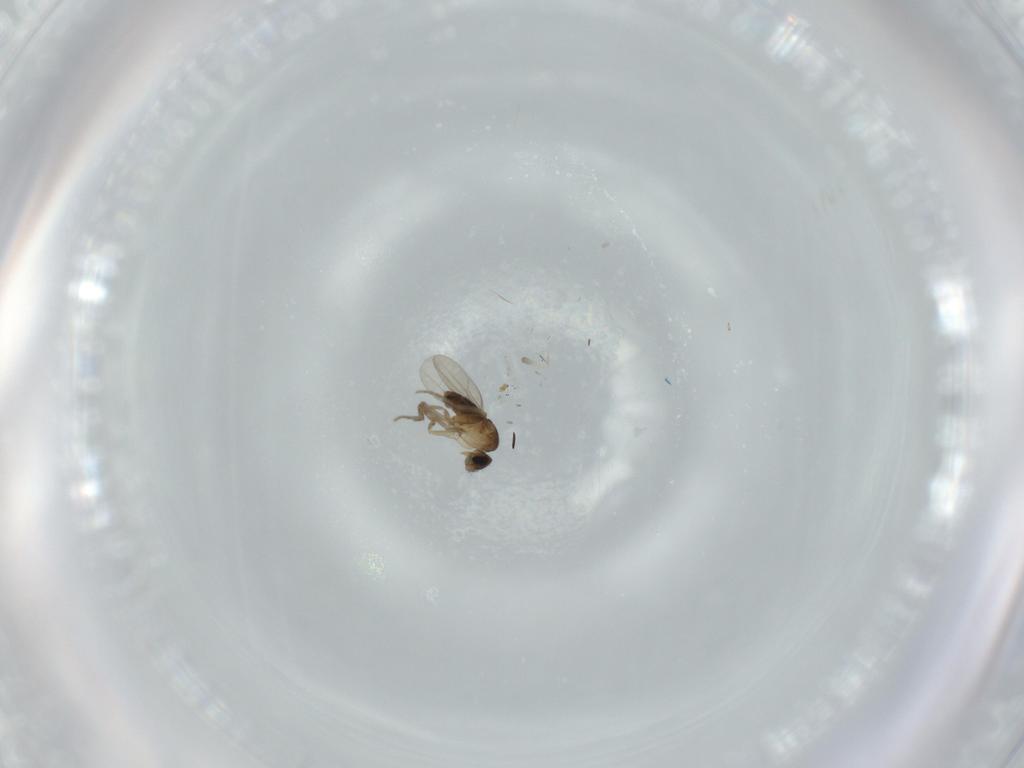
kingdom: Animalia
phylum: Arthropoda
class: Insecta
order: Diptera
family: Phoridae
